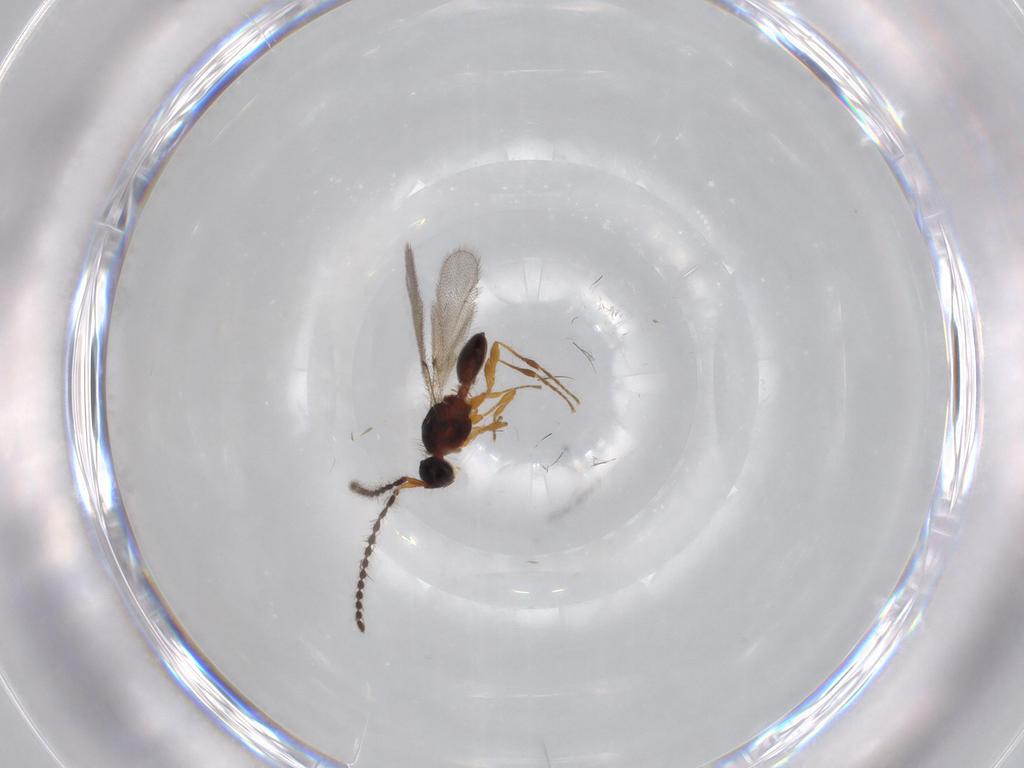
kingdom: Animalia
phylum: Arthropoda
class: Insecta
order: Hymenoptera
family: Diapriidae
